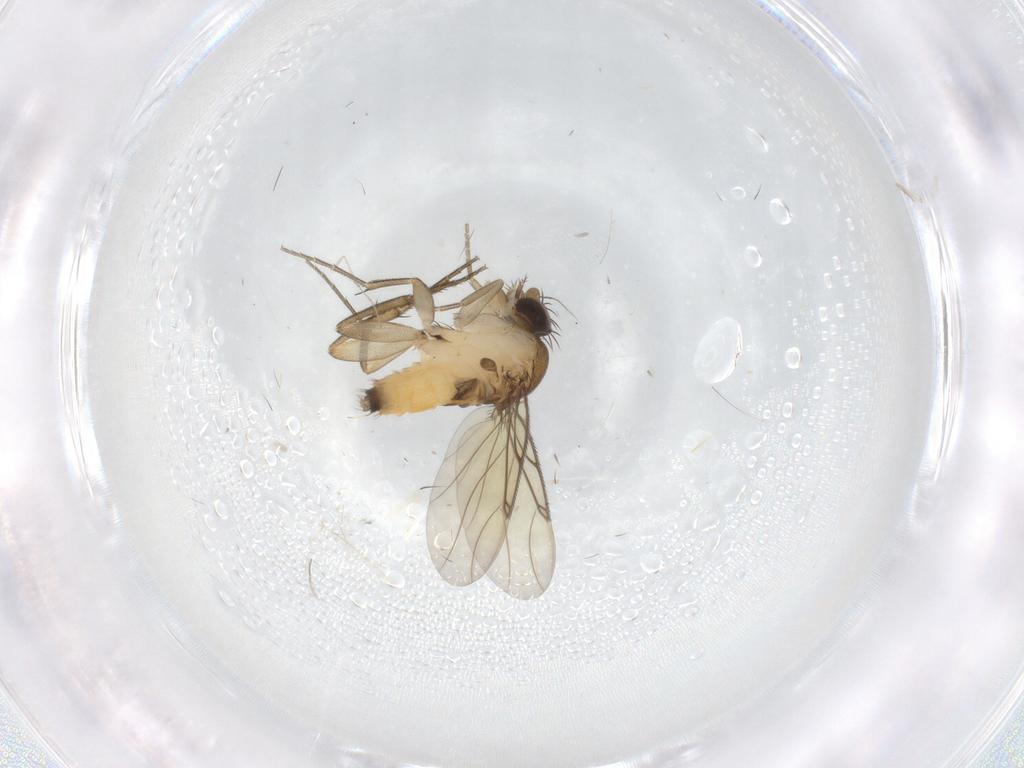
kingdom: Animalia
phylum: Arthropoda
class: Insecta
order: Diptera
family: Phoridae
